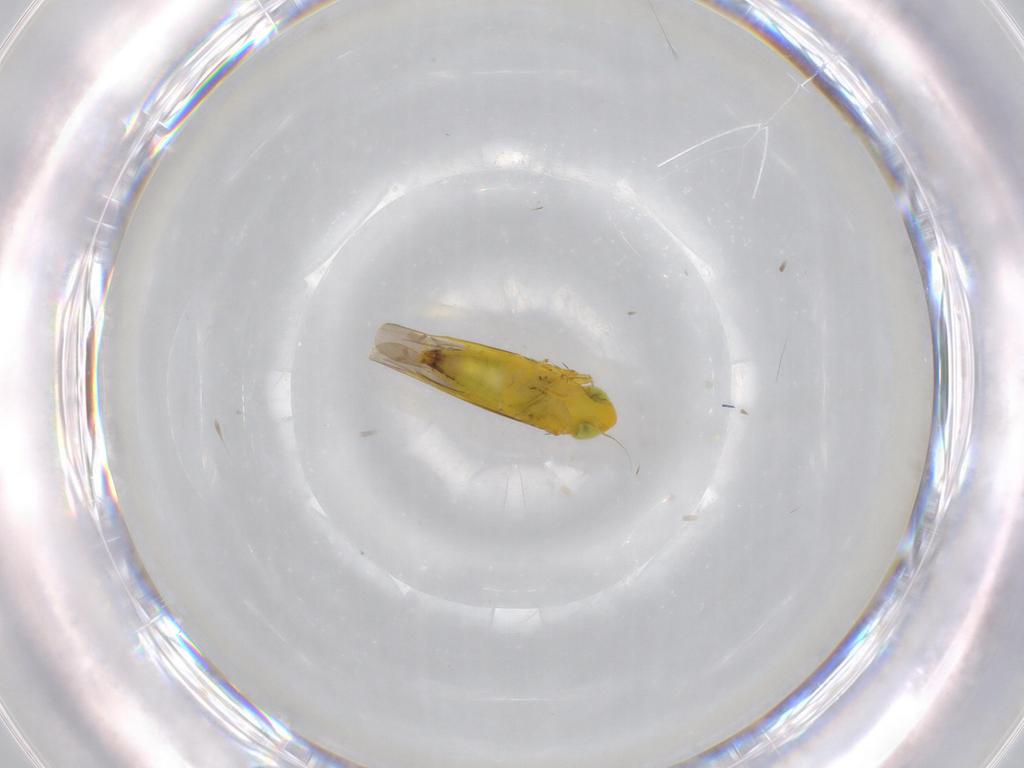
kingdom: Animalia
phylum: Arthropoda
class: Insecta
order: Hemiptera
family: Cicadellidae
